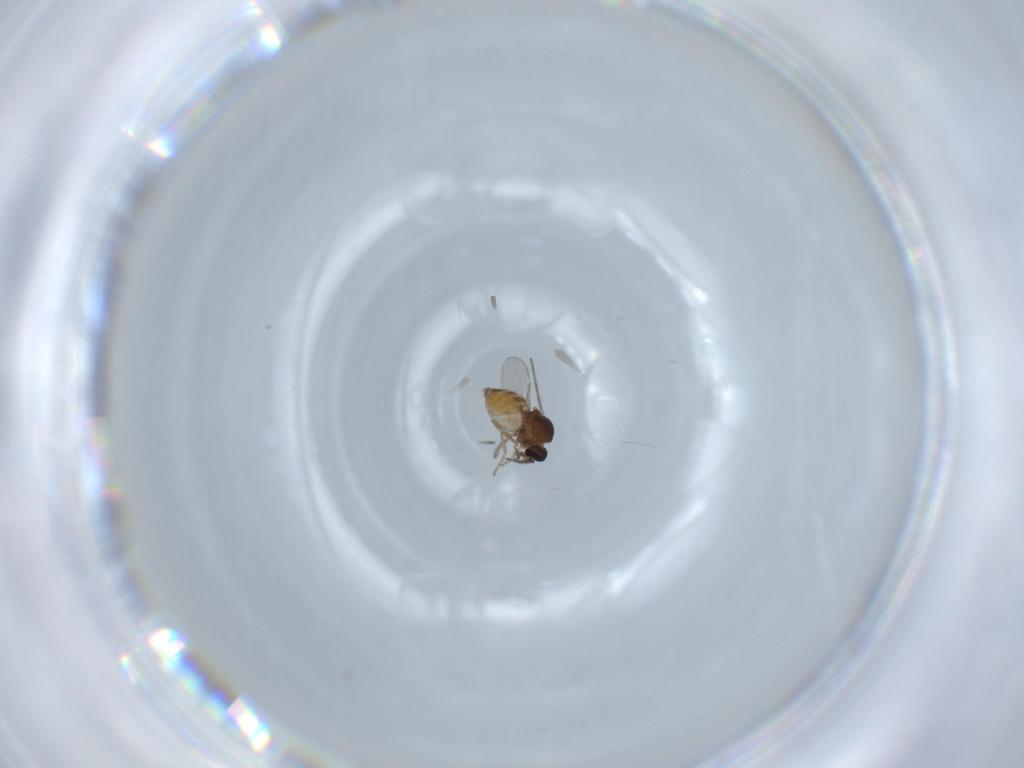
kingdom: Animalia
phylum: Arthropoda
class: Insecta
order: Diptera
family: Ceratopogonidae
